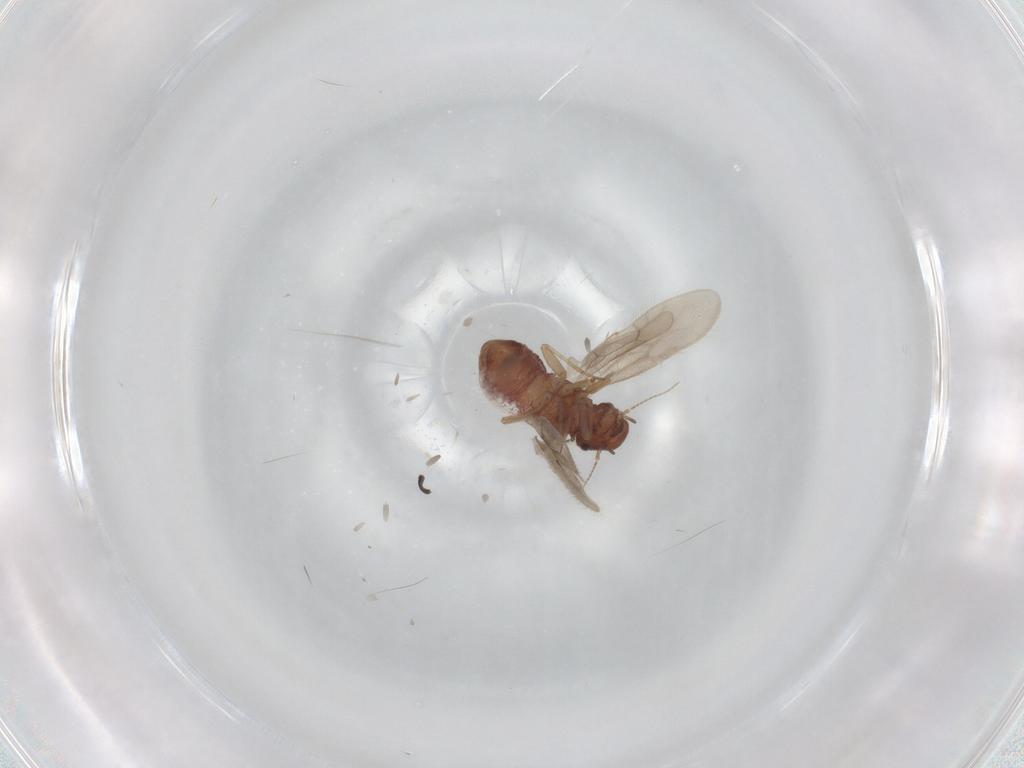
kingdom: Animalia
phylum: Arthropoda
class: Insecta
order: Psocodea
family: Archipsocidae
